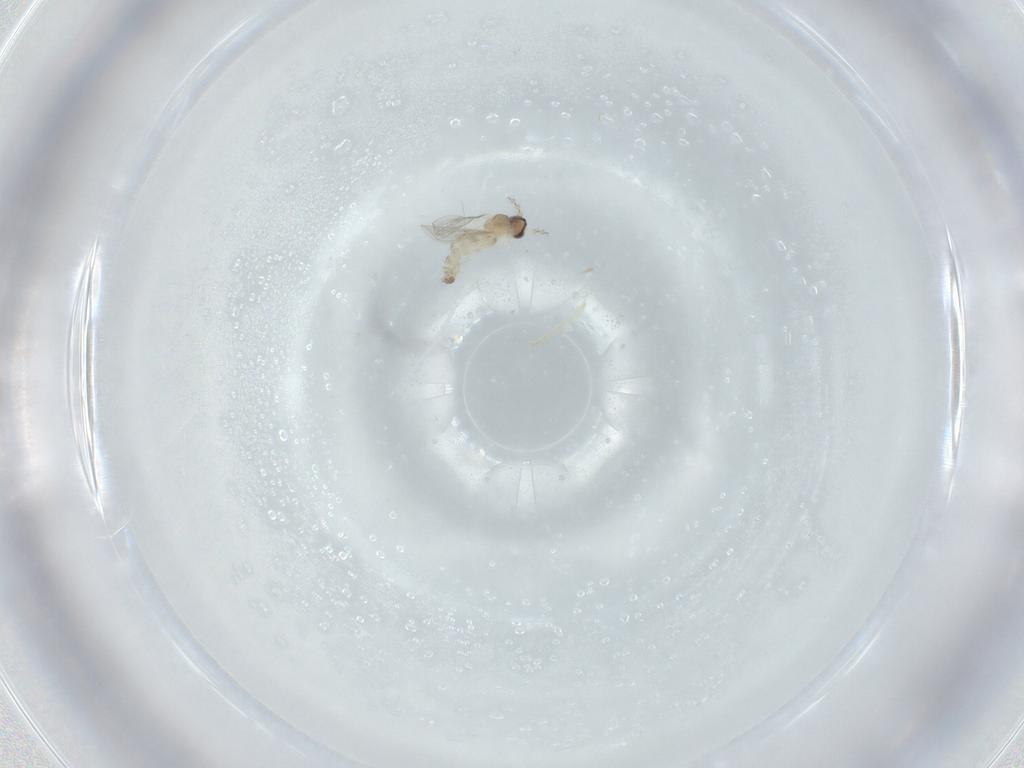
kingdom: Animalia
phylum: Arthropoda
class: Insecta
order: Diptera
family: Cecidomyiidae
